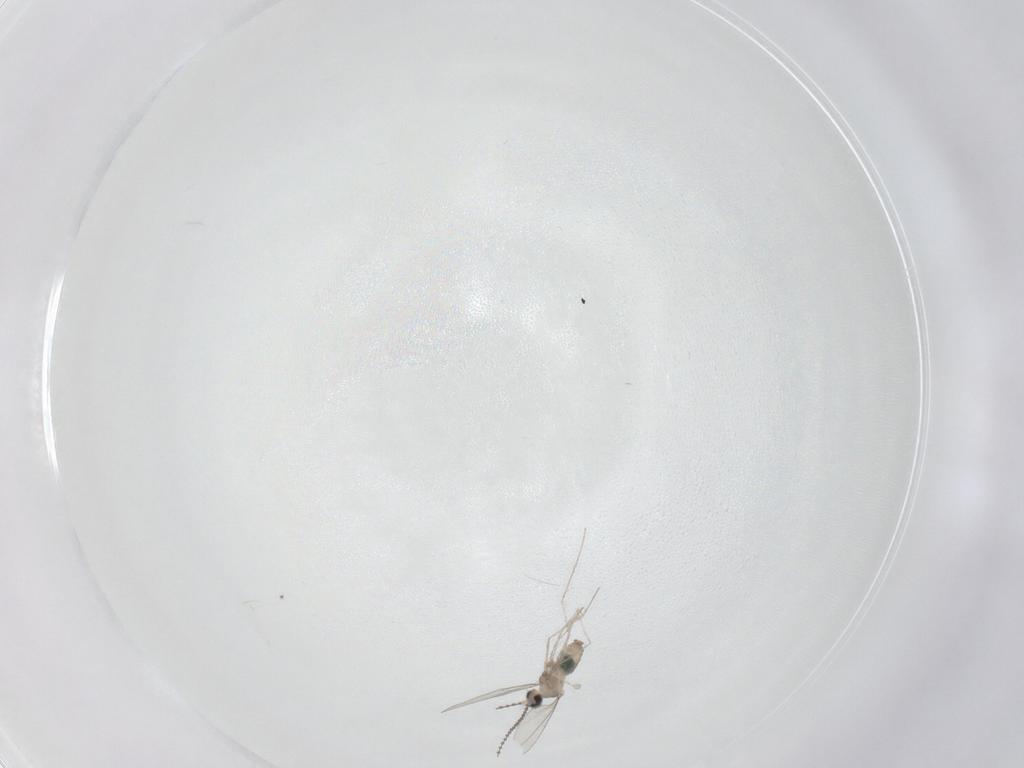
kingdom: Animalia
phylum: Arthropoda
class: Insecta
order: Diptera
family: Cecidomyiidae
